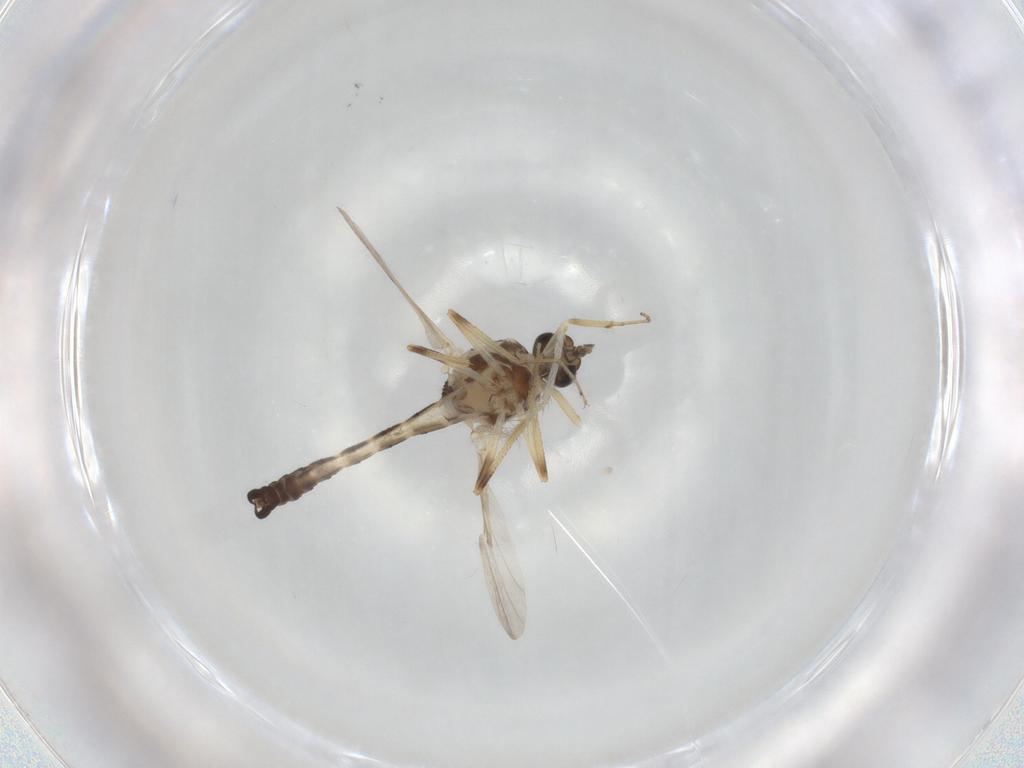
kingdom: Animalia
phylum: Arthropoda
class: Insecta
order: Diptera
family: Ceratopogonidae
